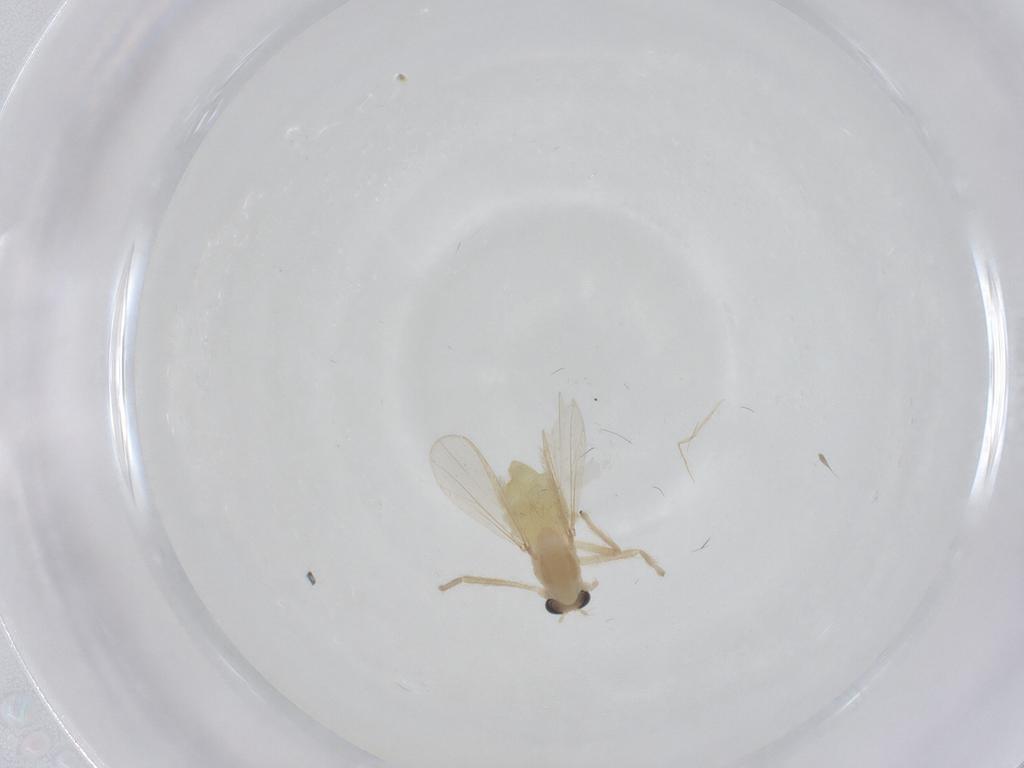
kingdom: Animalia
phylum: Arthropoda
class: Insecta
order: Diptera
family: Chironomidae
